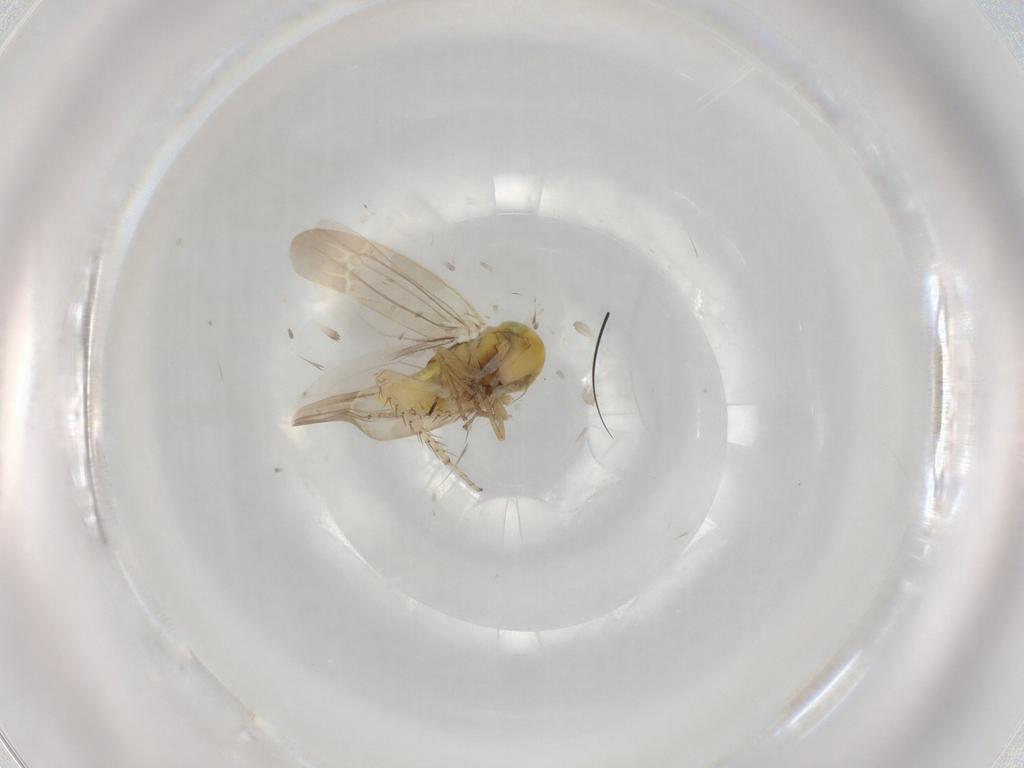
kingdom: Animalia
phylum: Arthropoda
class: Insecta
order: Hemiptera
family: Cicadellidae
